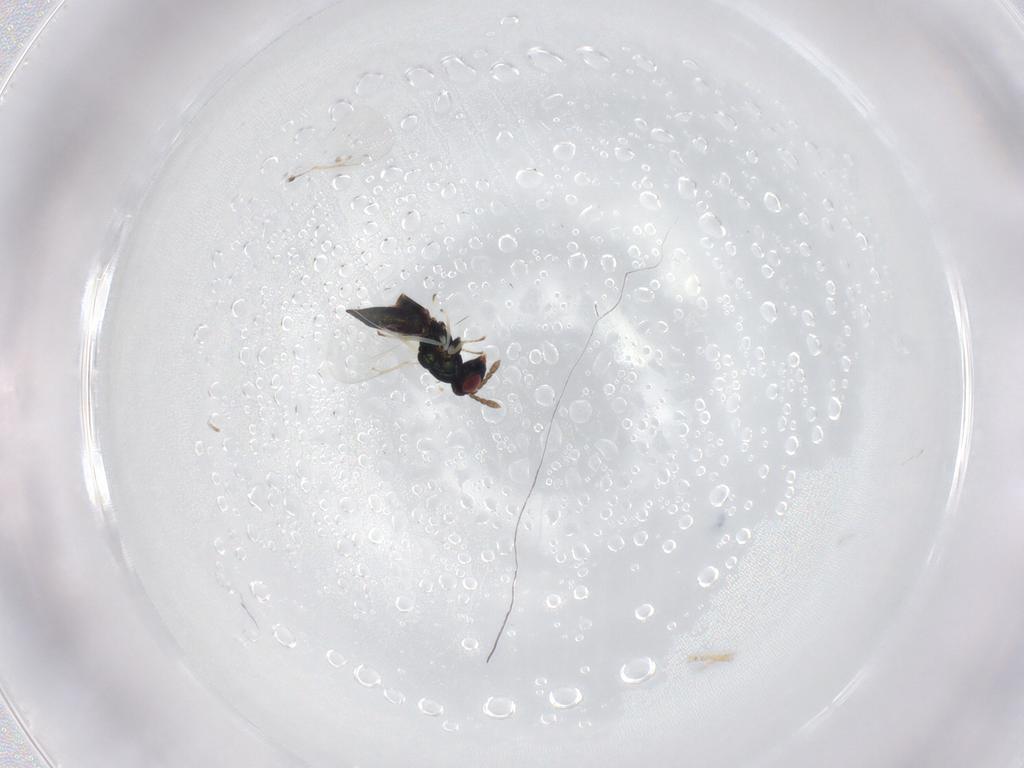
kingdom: Animalia
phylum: Arthropoda
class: Insecta
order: Hymenoptera
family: Eulophidae
